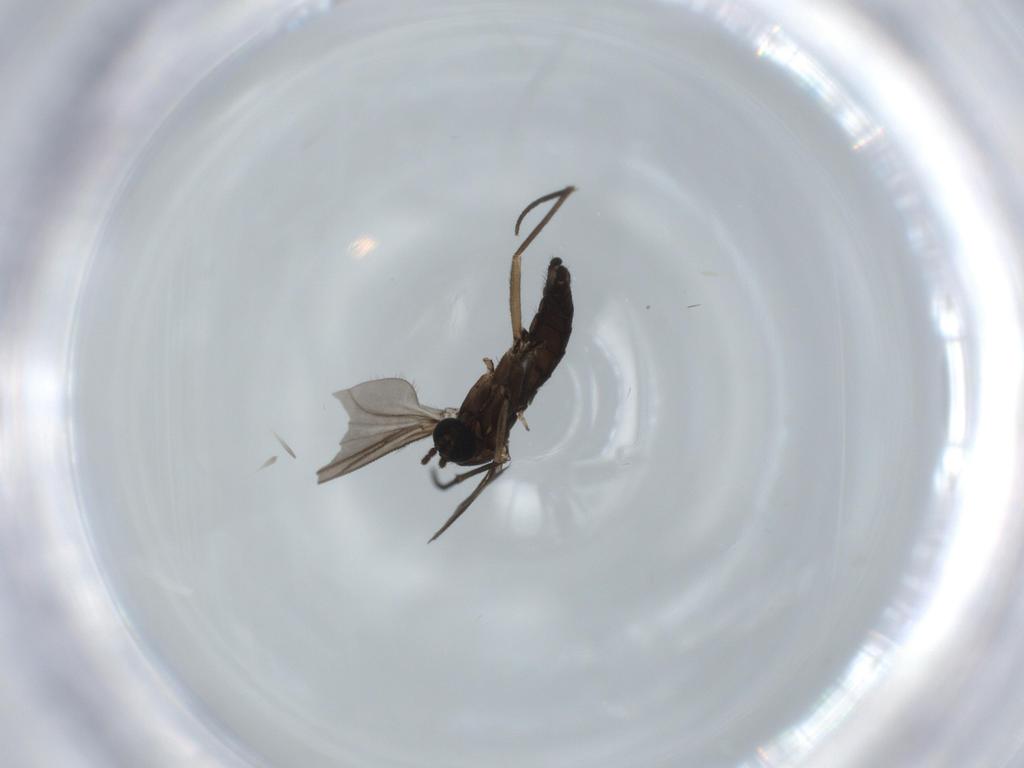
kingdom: Animalia
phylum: Arthropoda
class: Insecta
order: Diptera
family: Sciaridae
